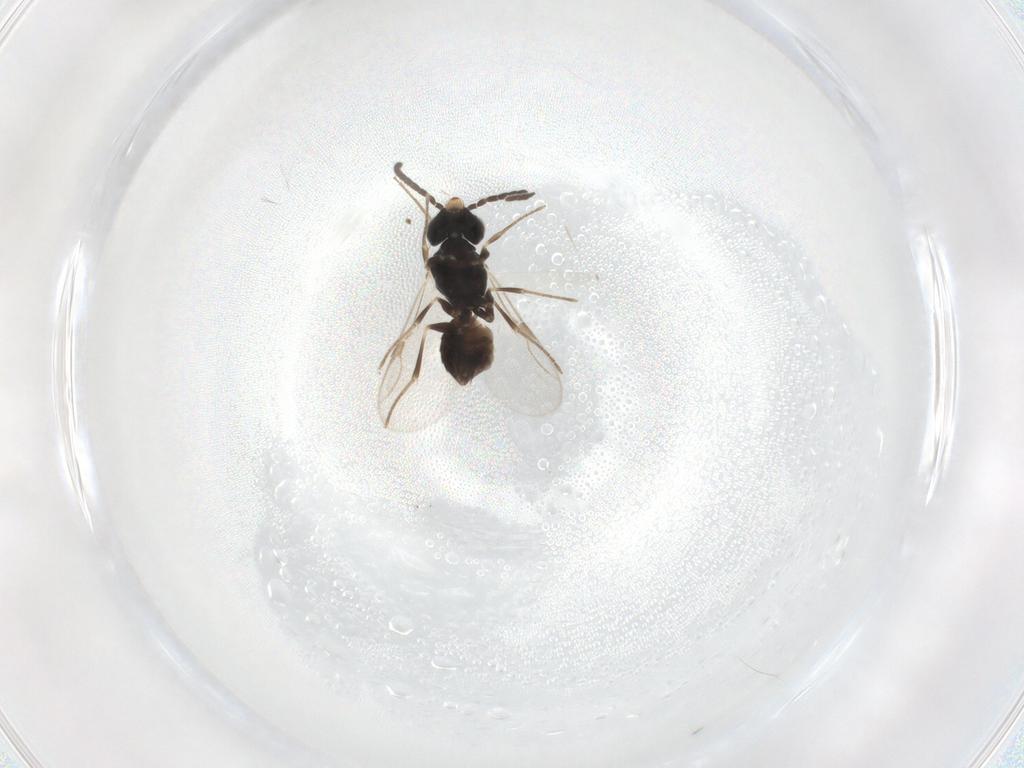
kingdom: Animalia
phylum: Arthropoda
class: Insecta
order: Hymenoptera
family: Dryinidae
